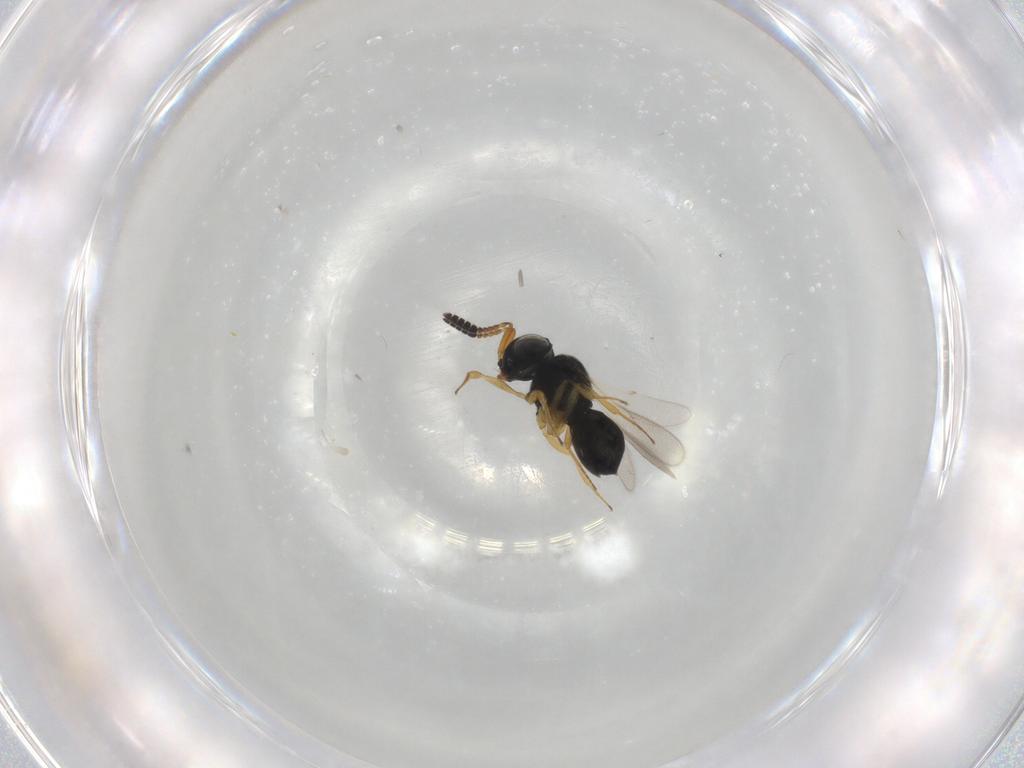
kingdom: Animalia
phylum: Arthropoda
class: Insecta
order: Hymenoptera
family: Scelionidae
